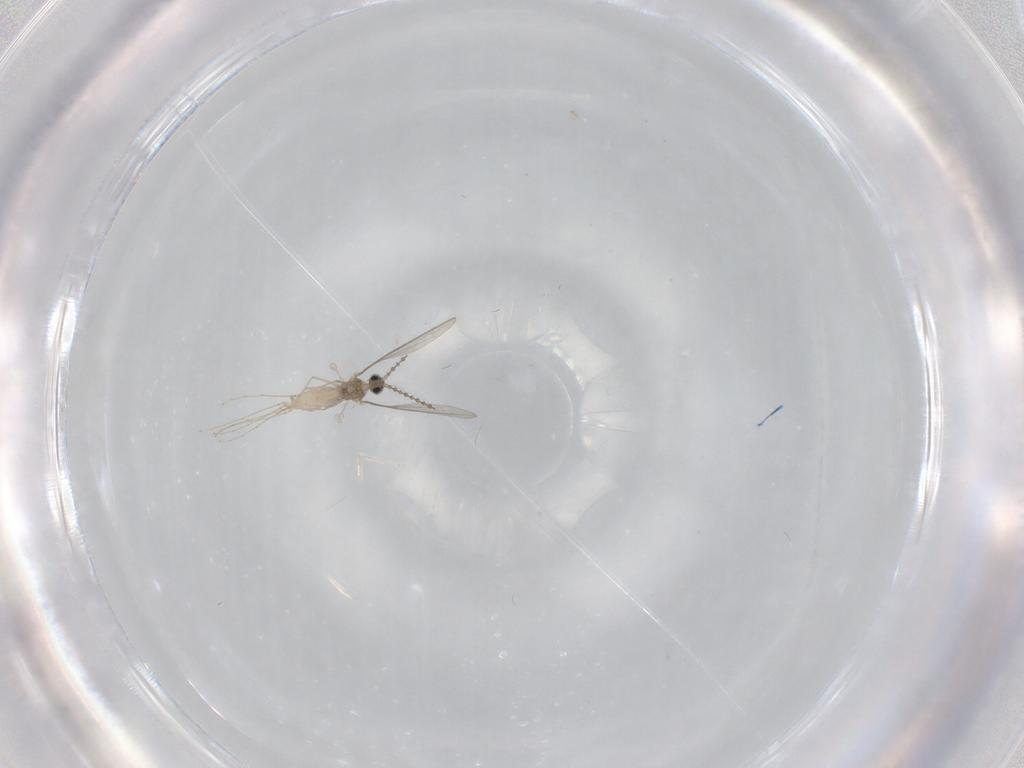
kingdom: Animalia
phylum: Arthropoda
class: Insecta
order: Diptera
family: Cecidomyiidae
